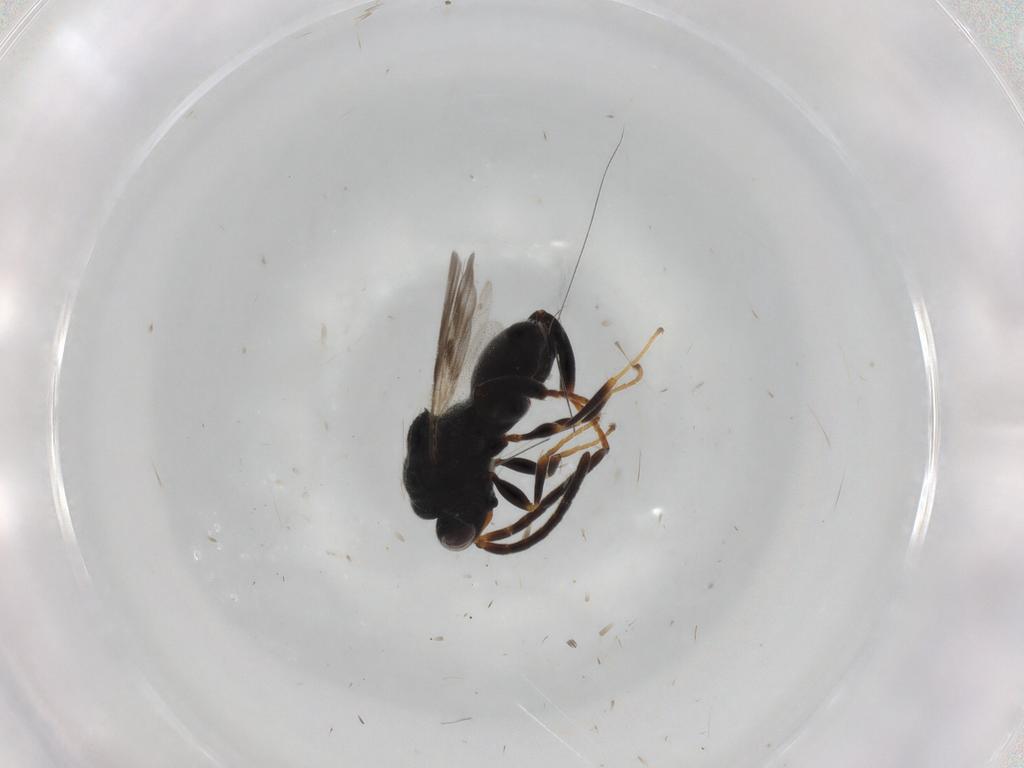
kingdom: Animalia
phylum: Arthropoda
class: Insecta
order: Hymenoptera
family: Chalcididae
